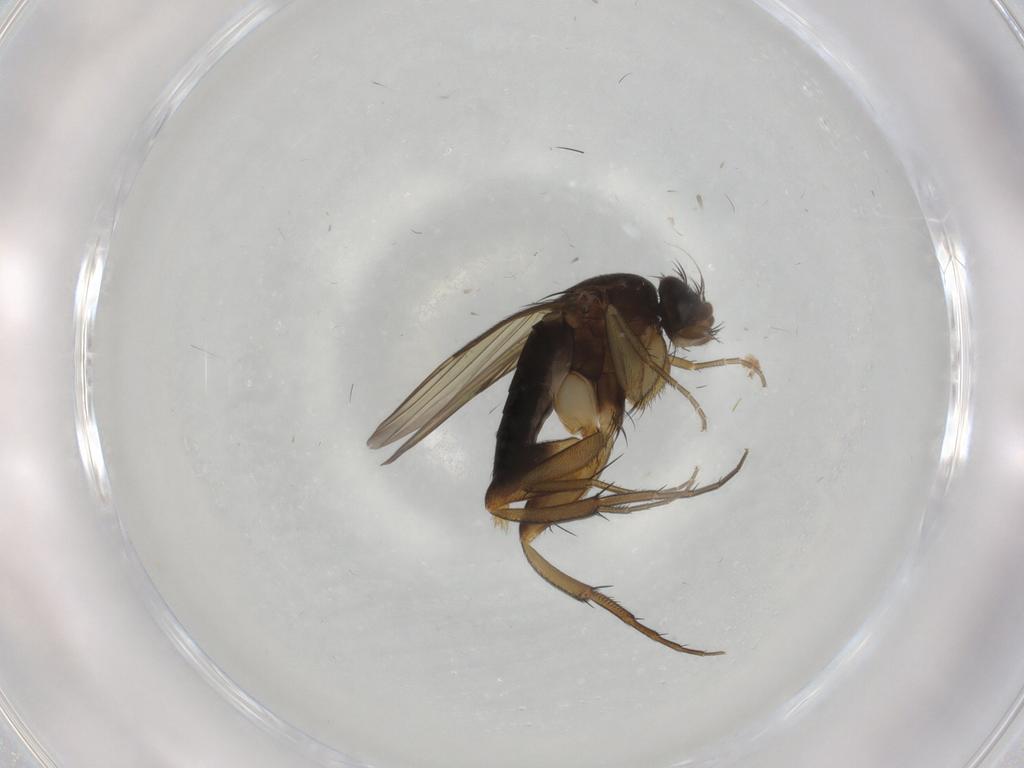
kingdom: Animalia
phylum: Arthropoda
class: Insecta
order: Diptera
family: Phoridae
